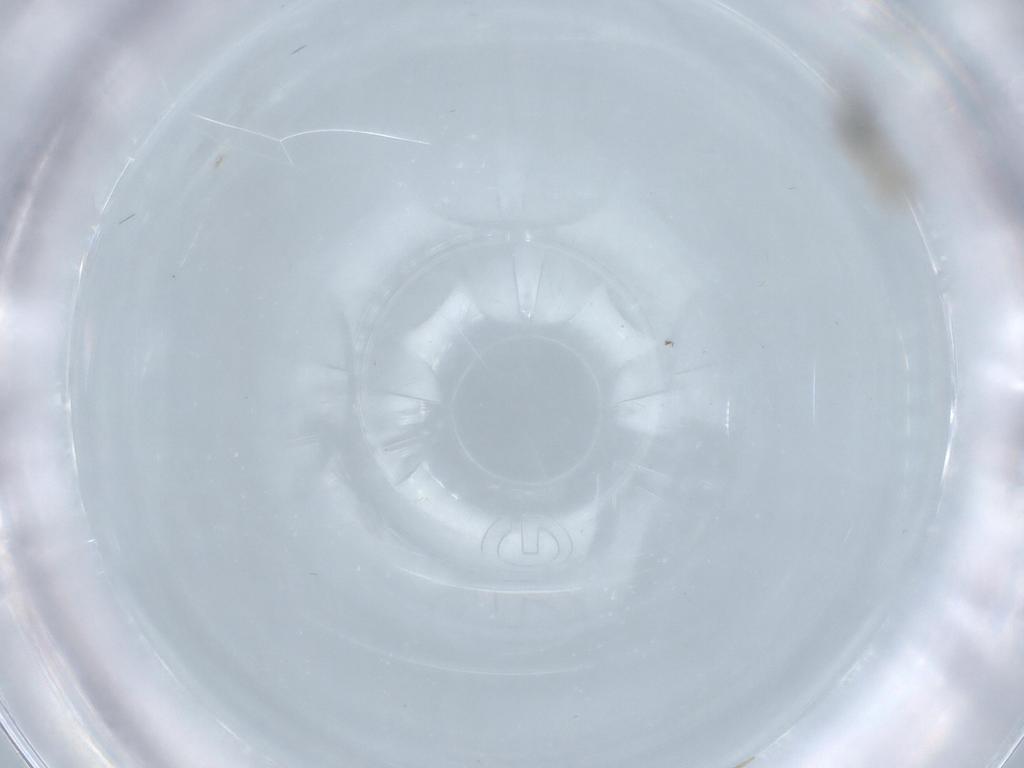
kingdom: Animalia
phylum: Arthropoda
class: Insecta
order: Diptera
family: Cecidomyiidae
